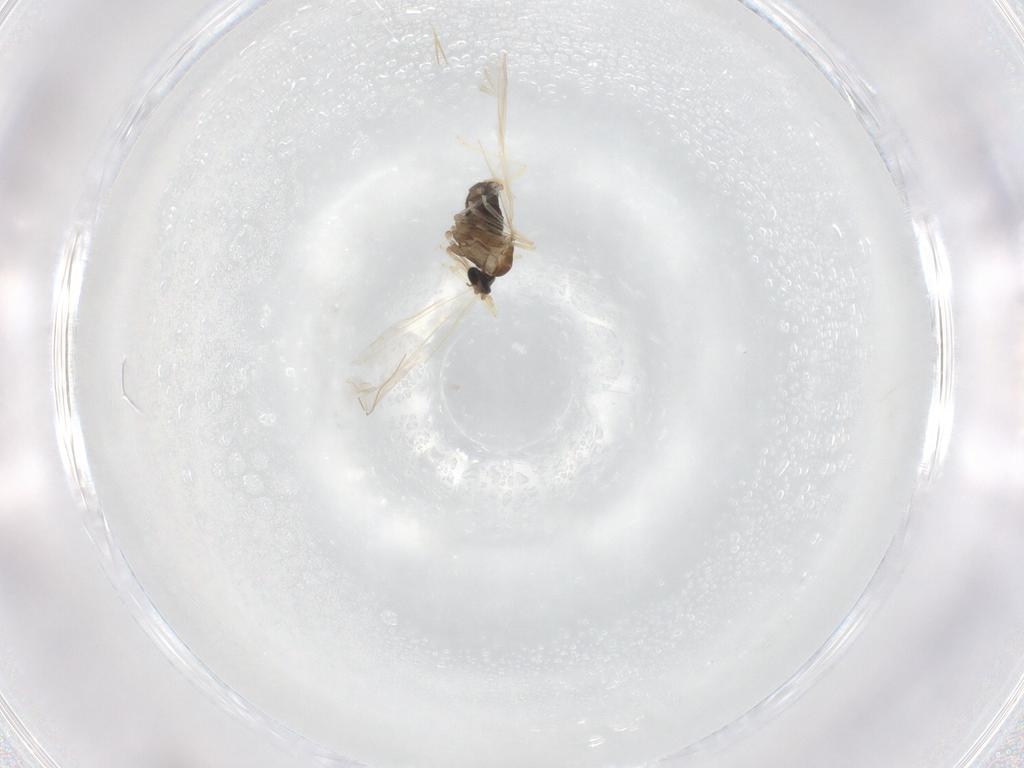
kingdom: Animalia
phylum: Arthropoda
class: Insecta
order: Diptera
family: Cecidomyiidae
